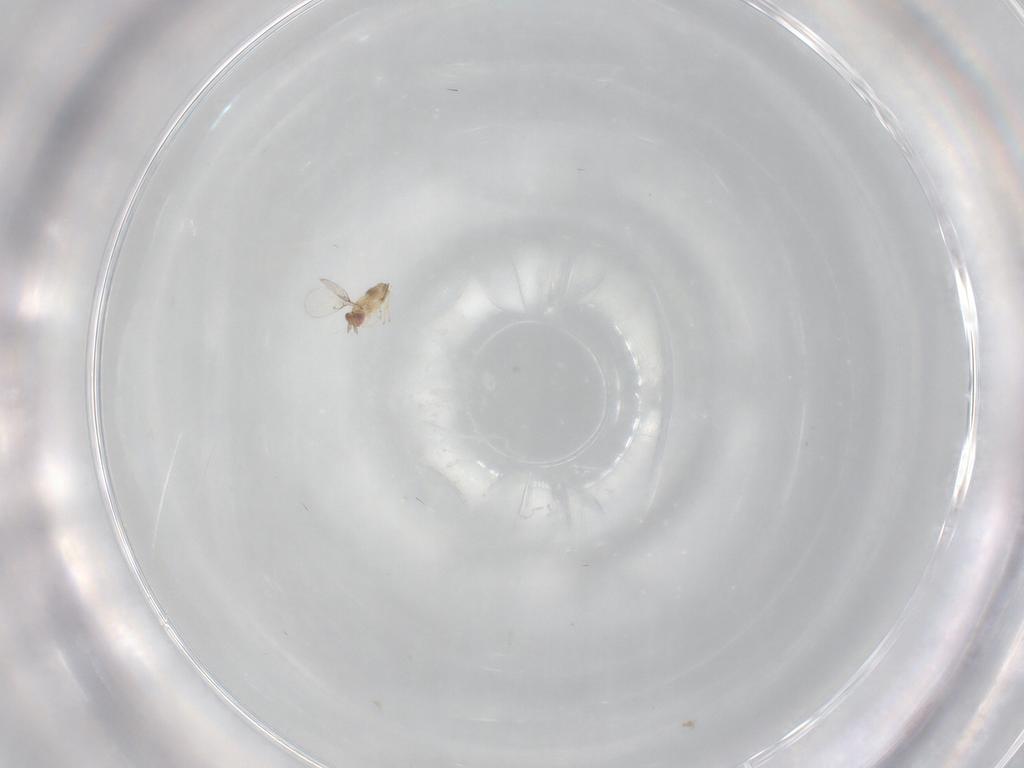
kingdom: Animalia
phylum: Arthropoda
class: Insecta
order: Hymenoptera
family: Trichogrammatidae
